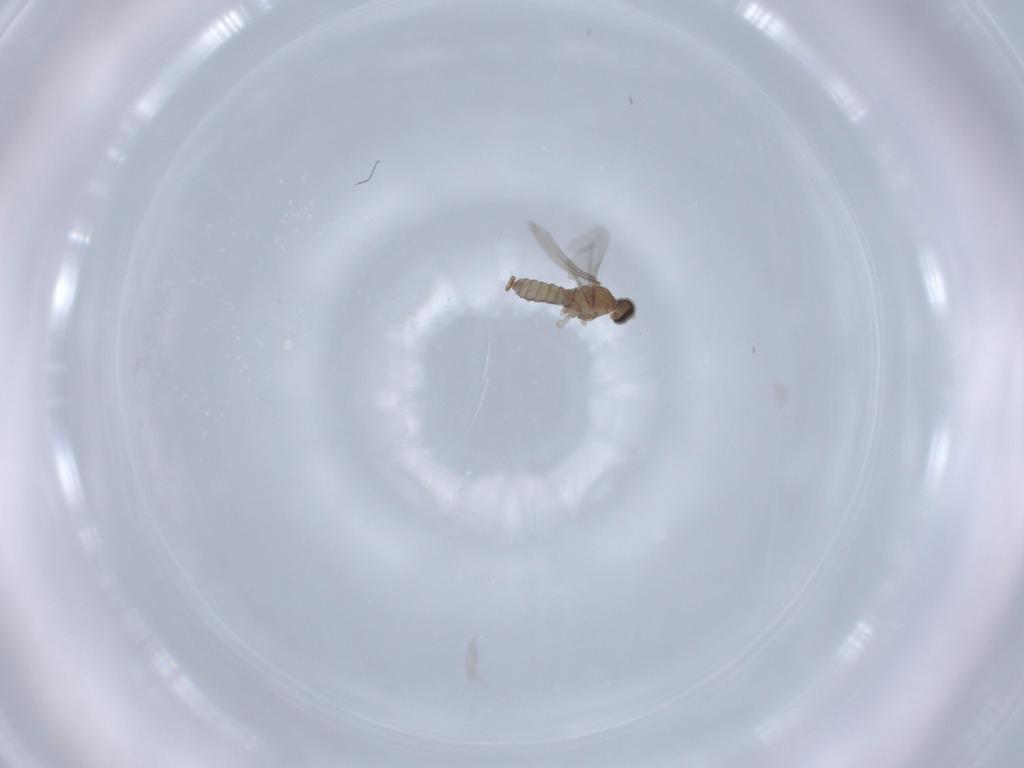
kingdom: Animalia
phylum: Arthropoda
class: Insecta
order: Diptera
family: Cecidomyiidae
